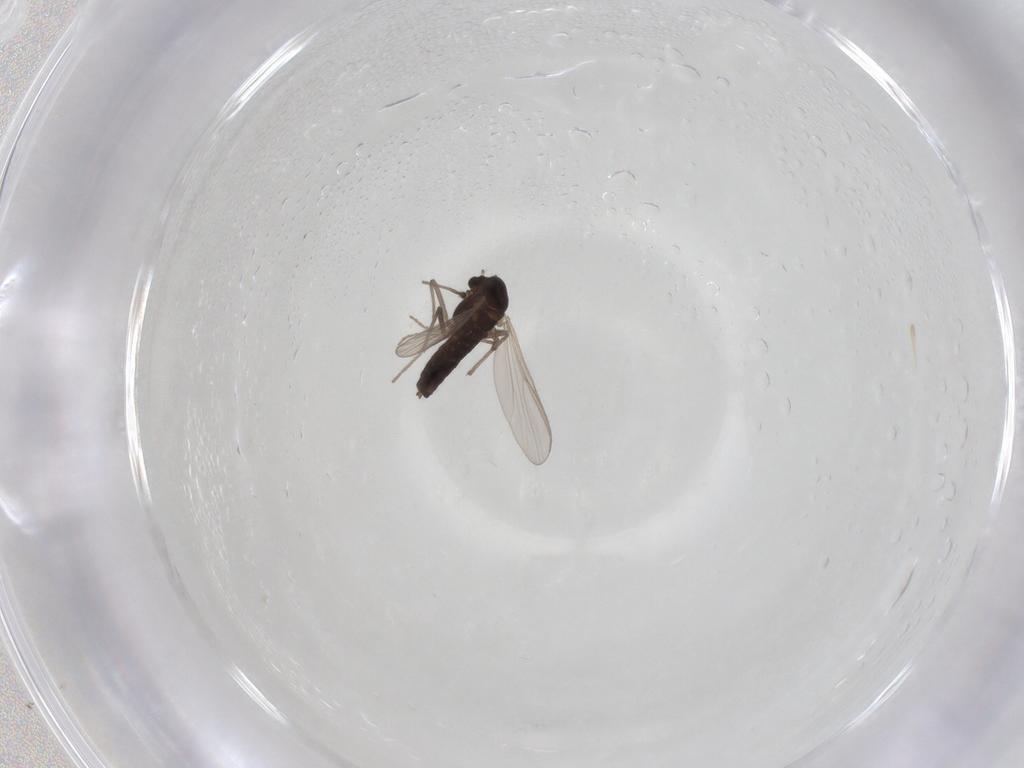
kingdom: Animalia
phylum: Arthropoda
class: Insecta
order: Diptera
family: Chironomidae
